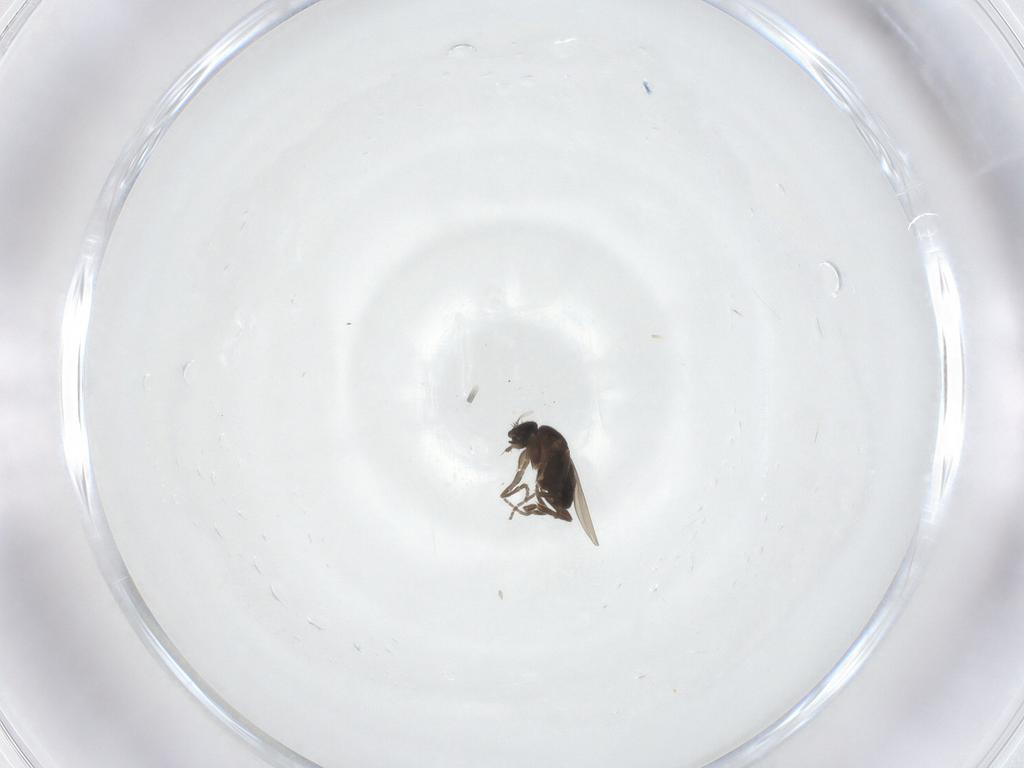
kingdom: Animalia
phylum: Arthropoda
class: Insecta
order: Diptera
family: Phoridae
